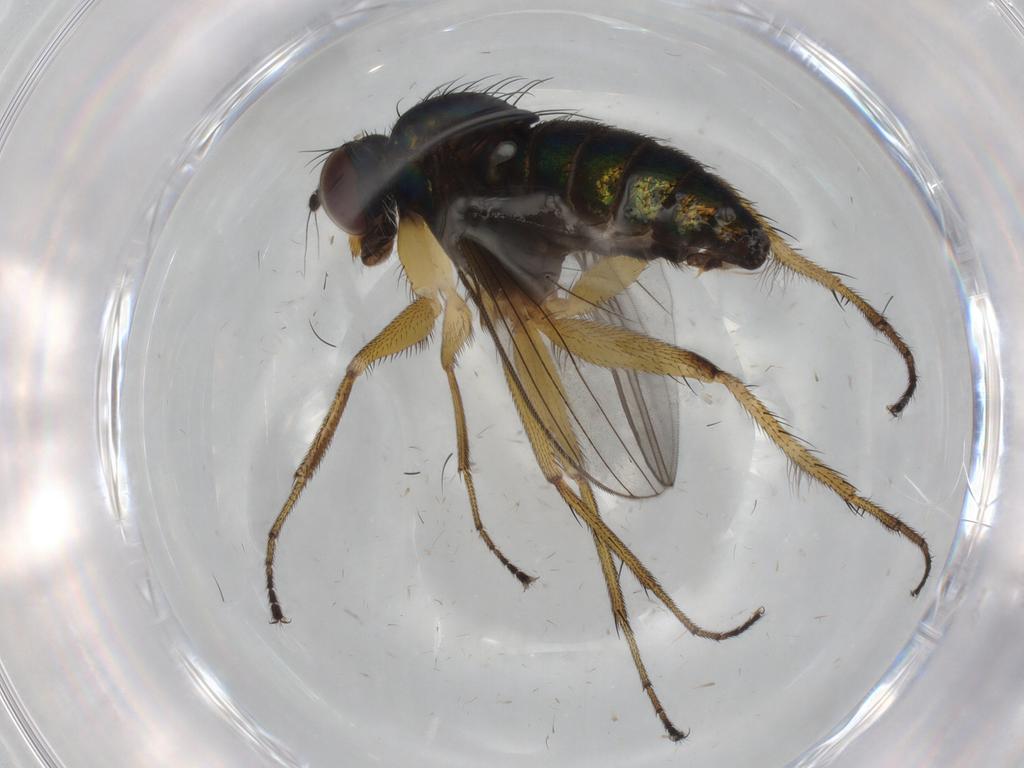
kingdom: Animalia
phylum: Arthropoda
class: Insecta
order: Diptera
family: Chironomidae
